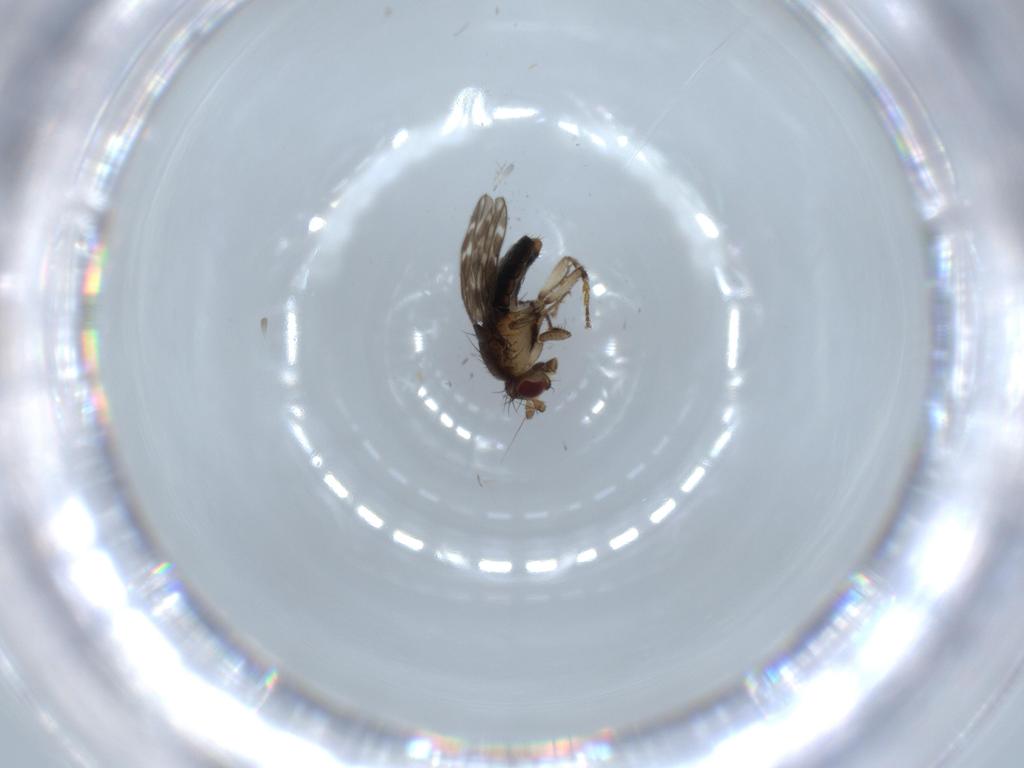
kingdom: Animalia
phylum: Arthropoda
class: Insecta
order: Diptera
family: Sphaeroceridae
